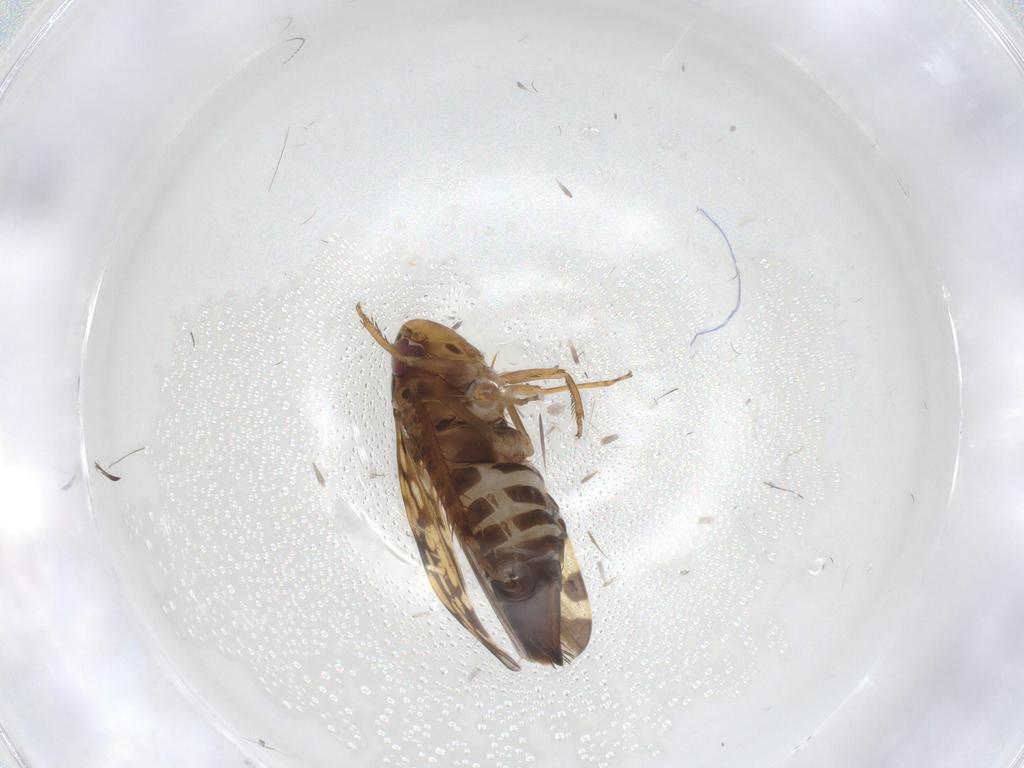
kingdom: Animalia
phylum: Arthropoda
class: Insecta
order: Hemiptera
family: Cicadellidae
